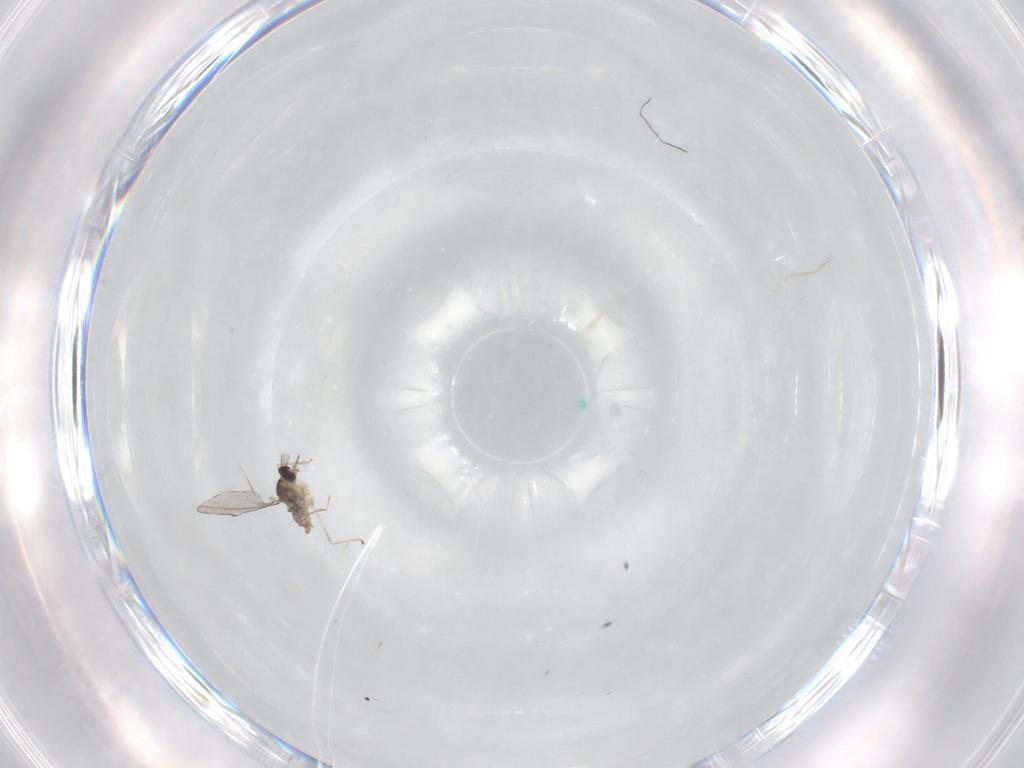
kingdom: Animalia
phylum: Arthropoda
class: Insecta
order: Diptera
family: Cecidomyiidae
